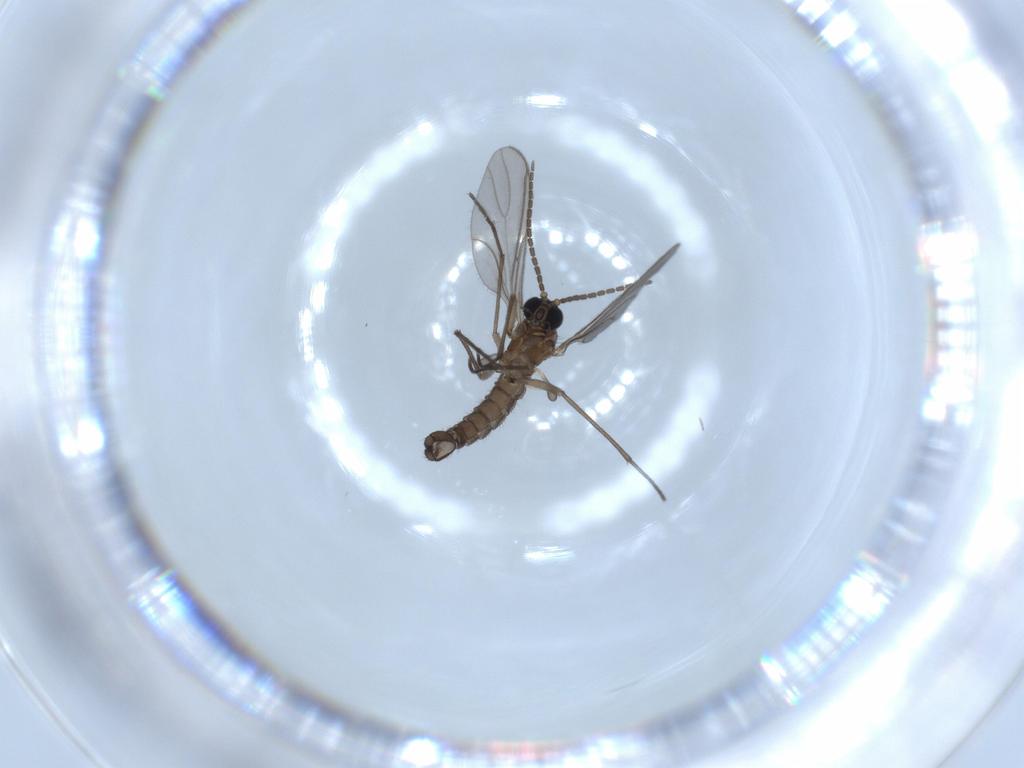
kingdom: Animalia
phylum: Arthropoda
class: Insecta
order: Diptera
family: Sciaridae
